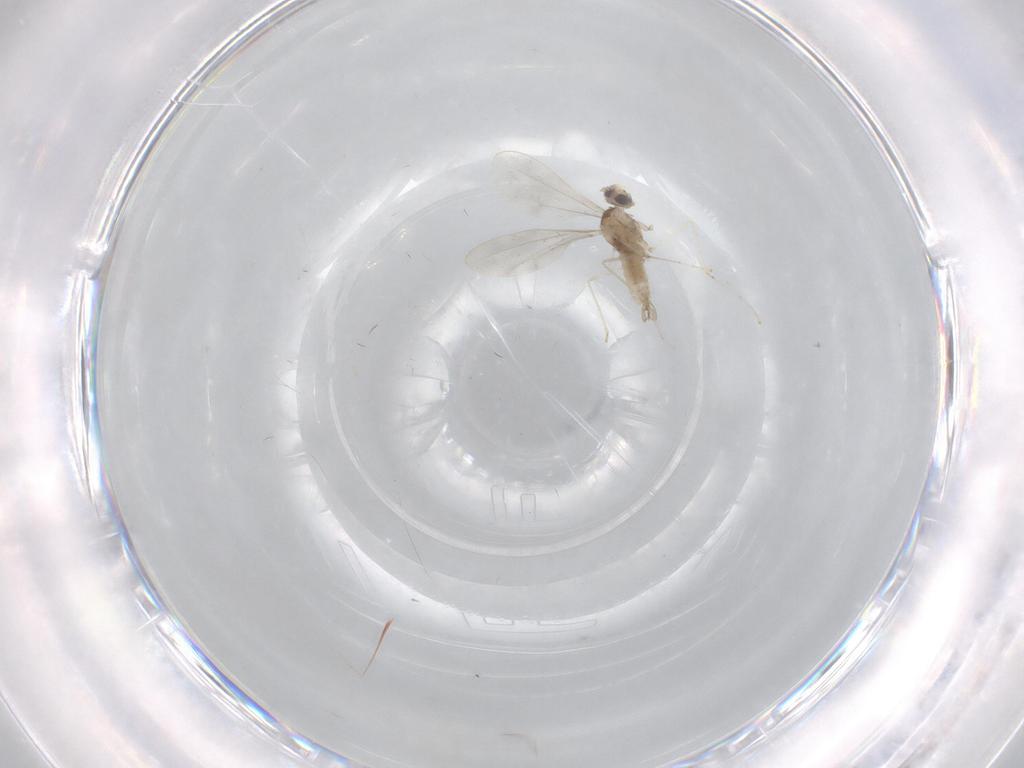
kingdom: Animalia
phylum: Arthropoda
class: Insecta
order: Diptera
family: Cecidomyiidae
